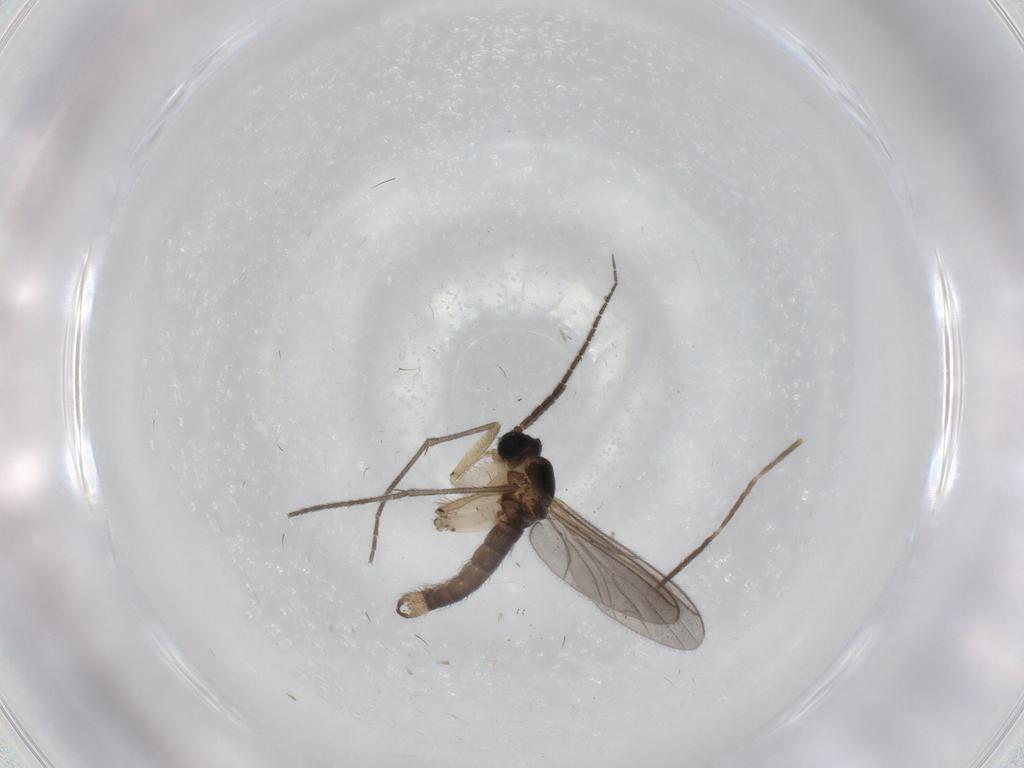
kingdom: Animalia
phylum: Arthropoda
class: Insecta
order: Diptera
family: Sciaridae
